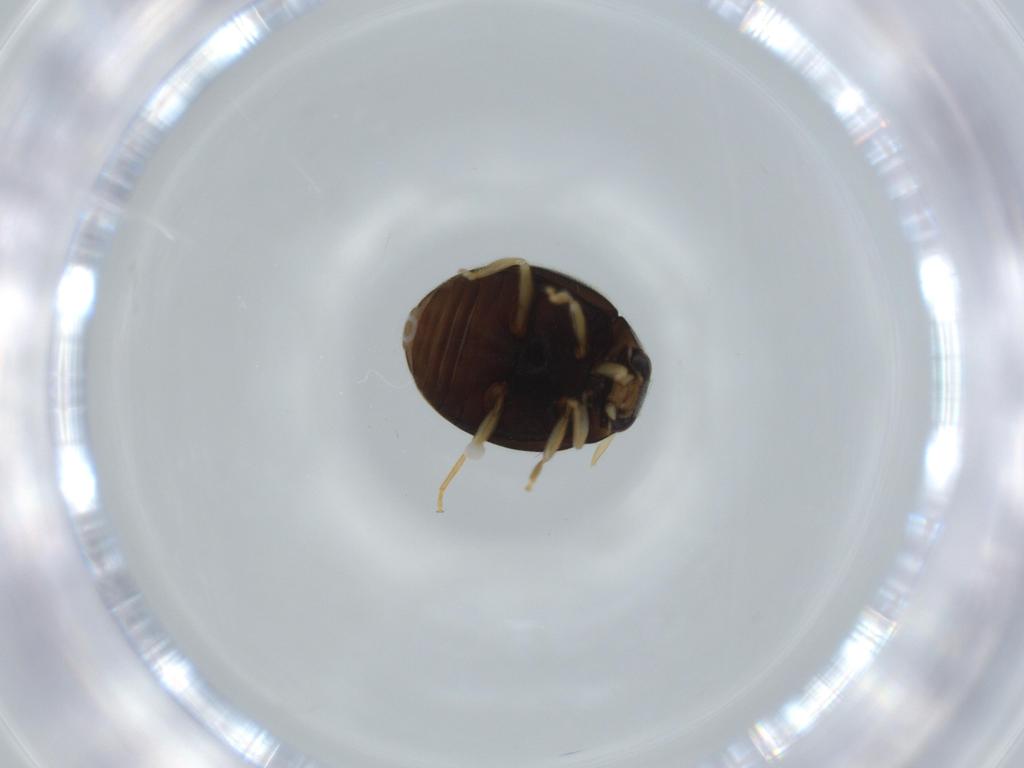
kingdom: Animalia
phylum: Arthropoda
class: Insecta
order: Coleoptera
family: Coccinellidae
